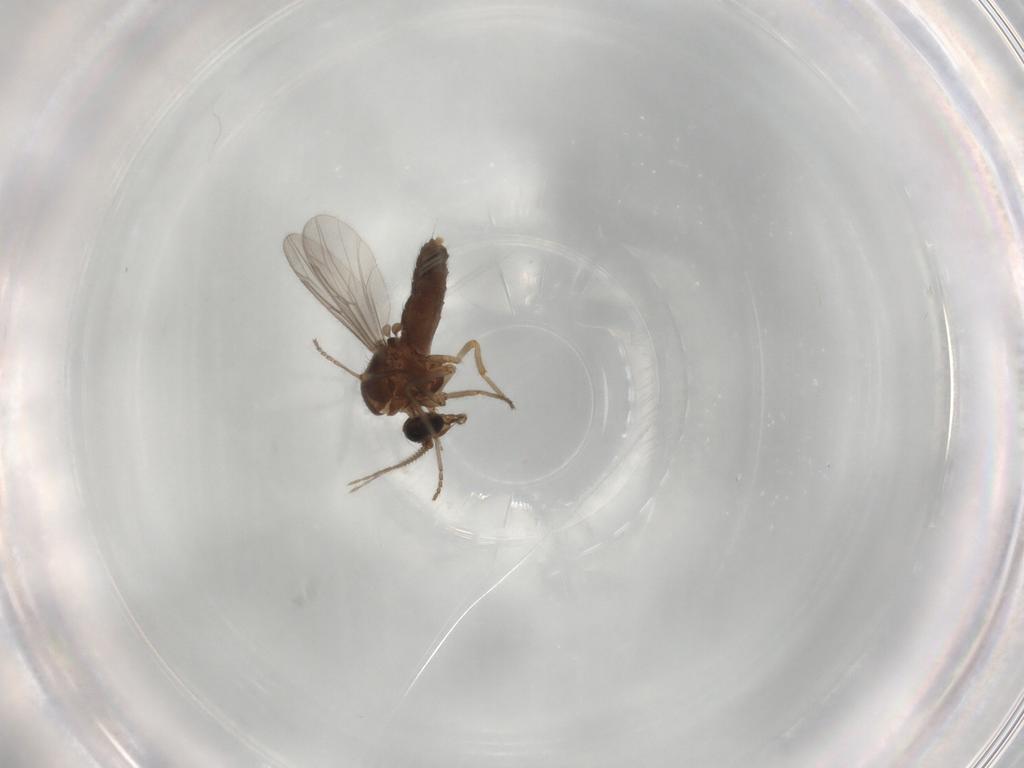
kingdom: Animalia
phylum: Arthropoda
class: Insecta
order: Diptera
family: Ceratopogonidae
